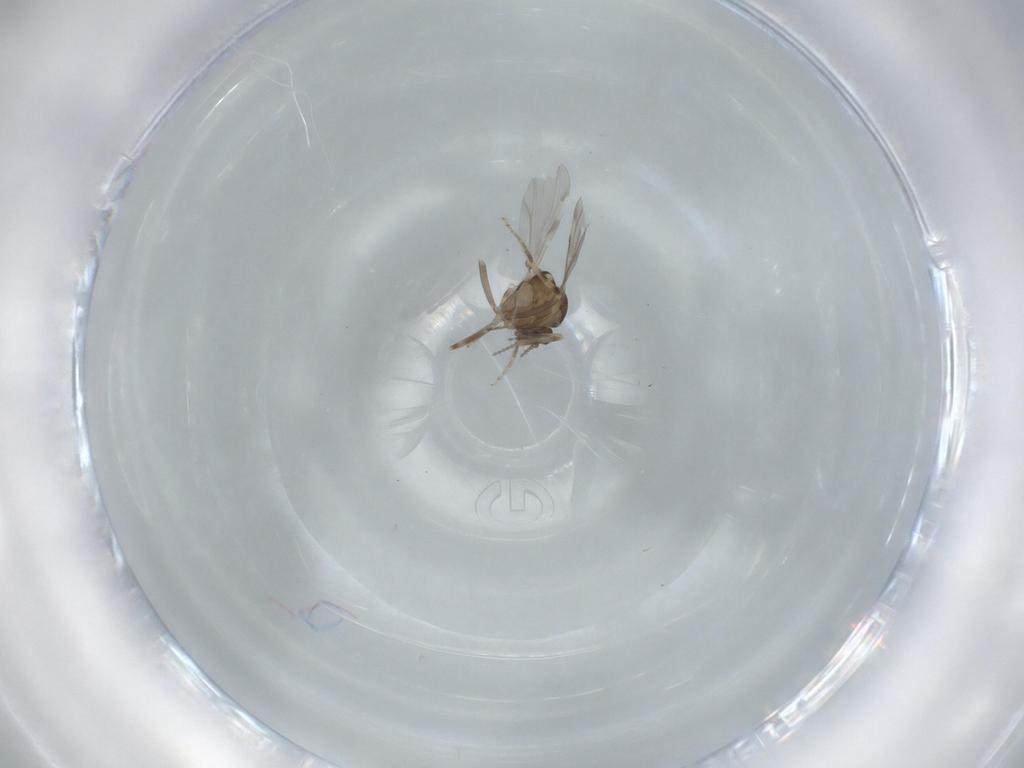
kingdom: Animalia
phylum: Arthropoda
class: Insecta
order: Diptera
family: Ceratopogonidae
